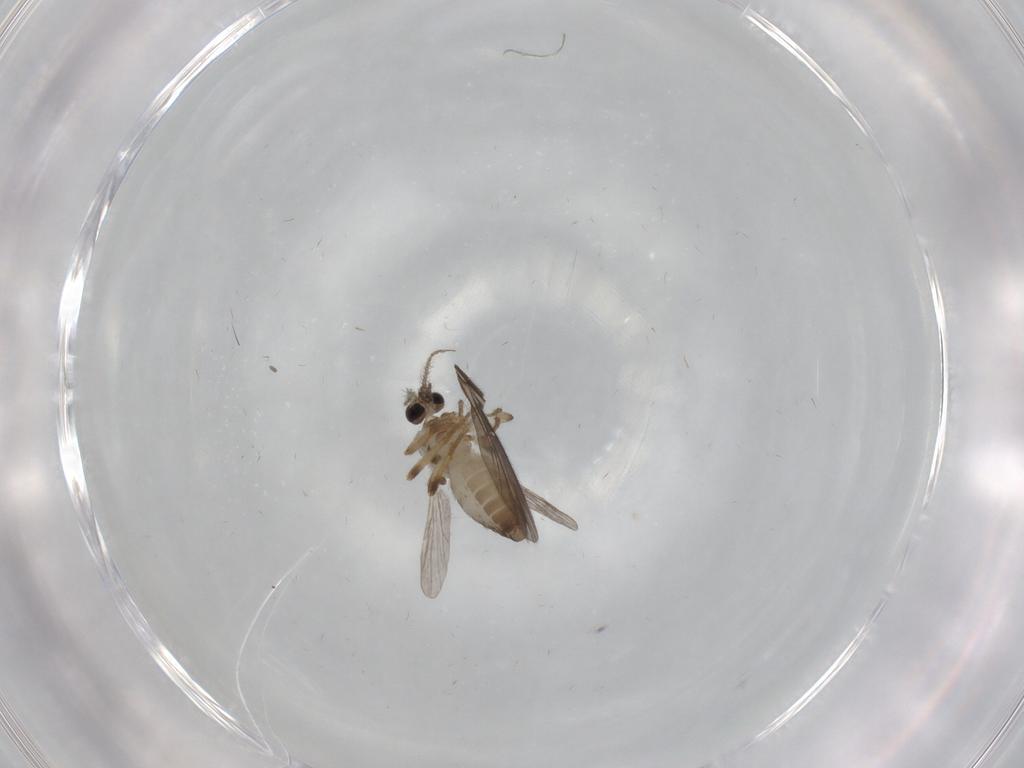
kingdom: Animalia
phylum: Arthropoda
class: Insecta
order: Diptera
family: Ceratopogonidae
